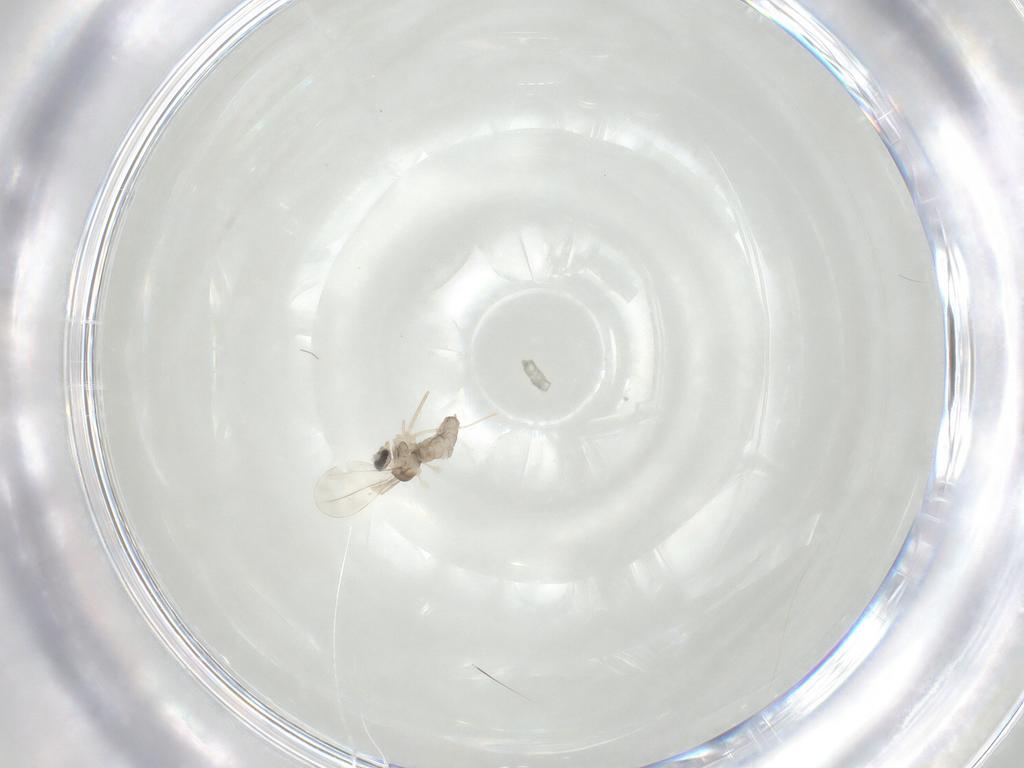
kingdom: Animalia
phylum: Arthropoda
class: Insecta
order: Diptera
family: Cecidomyiidae
